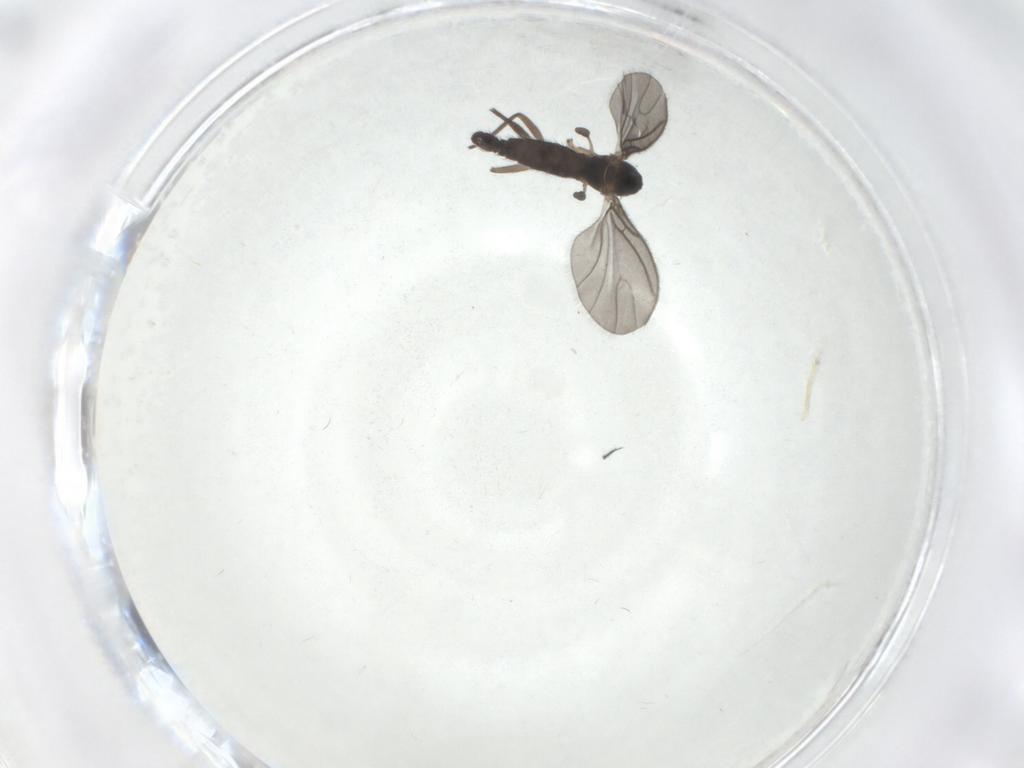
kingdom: Animalia
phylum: Arthropoda
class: Insecta
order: Diptera
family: Sciaridae
